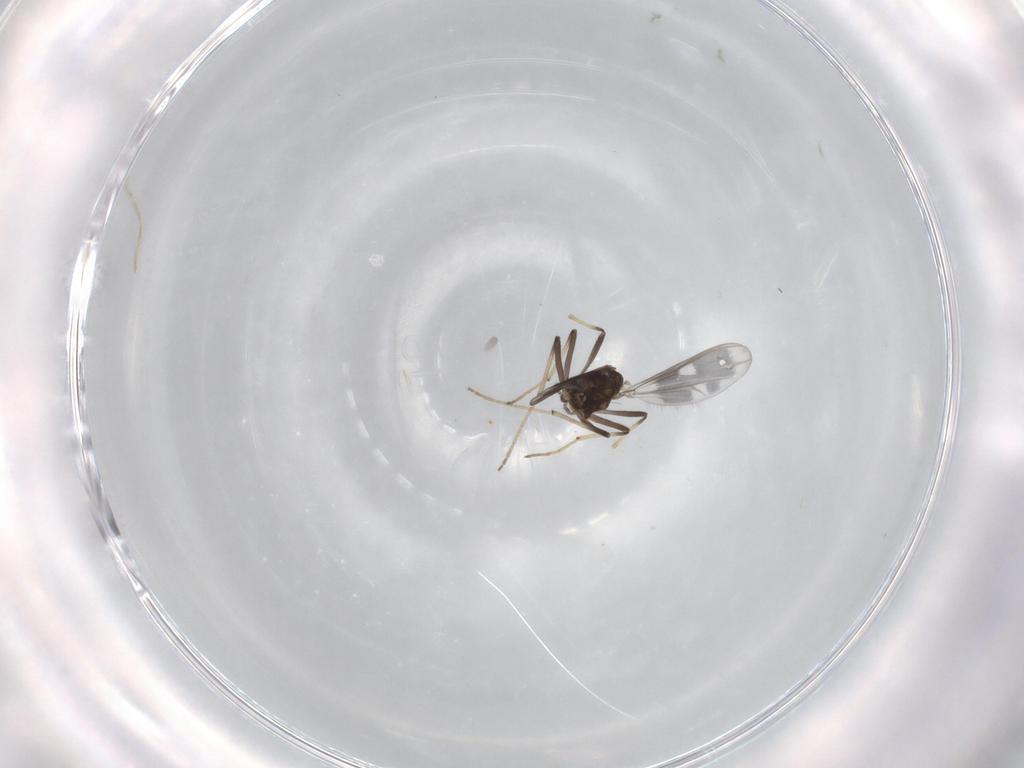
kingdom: Animalia
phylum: Arthropoda
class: Insecta
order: Diptera
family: Chironomidae
